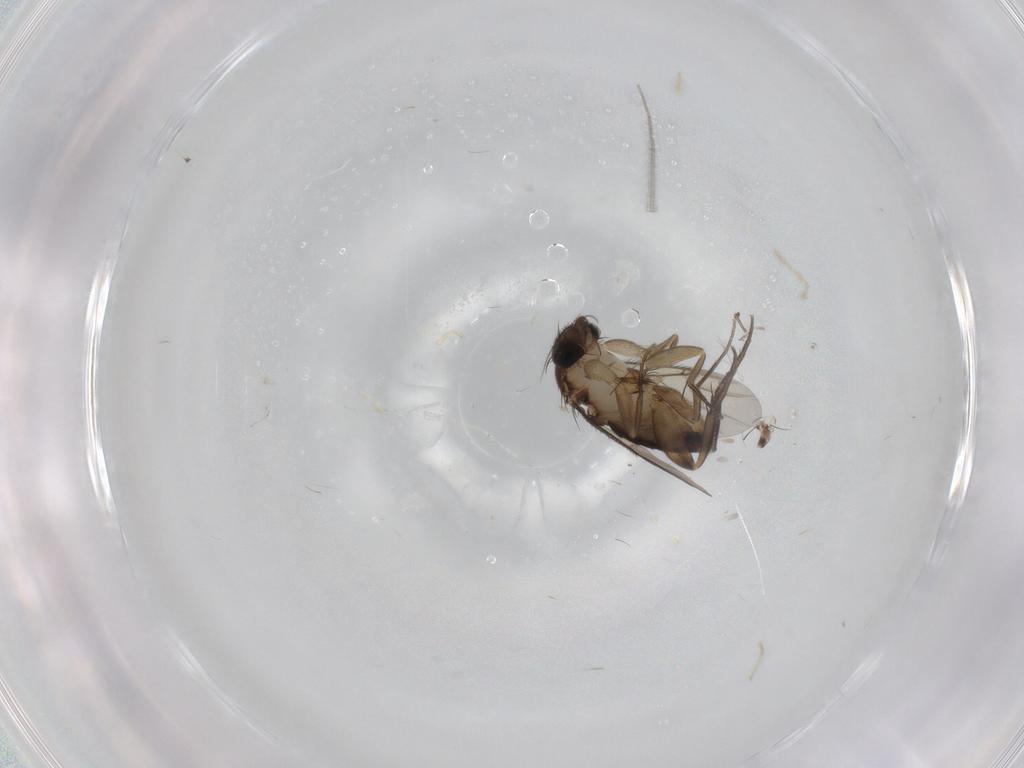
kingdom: Animalia
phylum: Arthropoda
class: Insecta
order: Diptera
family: Phoridae
